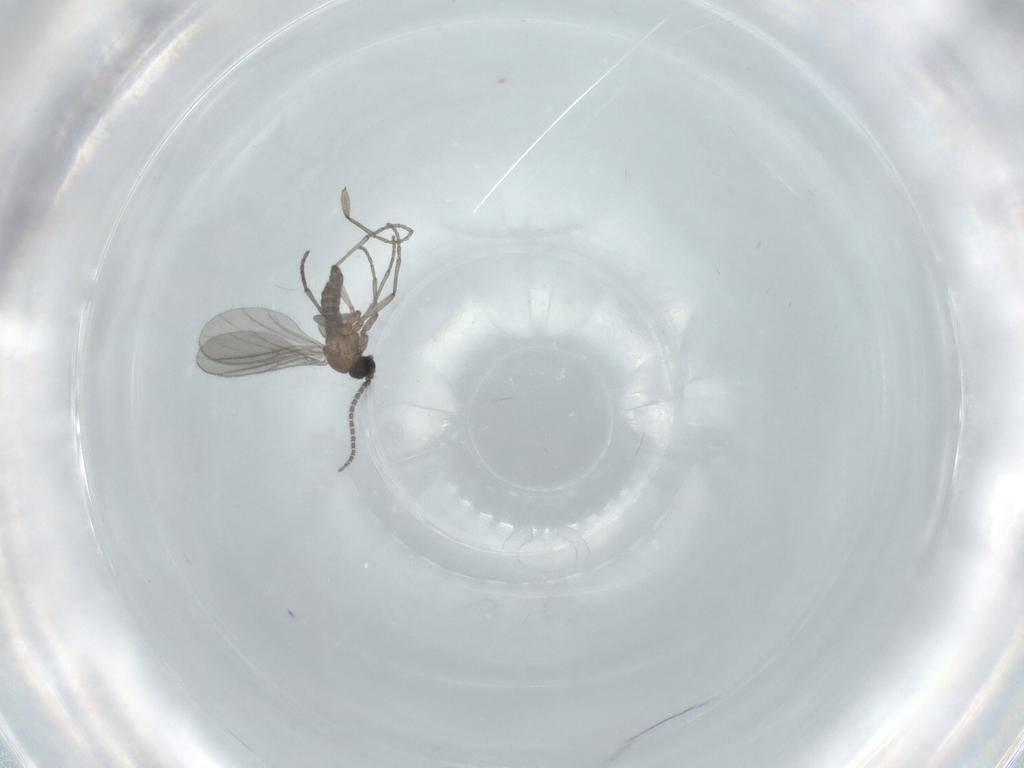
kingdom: Animalia
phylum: Arthropoda
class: Insecta
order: Diptera
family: Sciaridae
